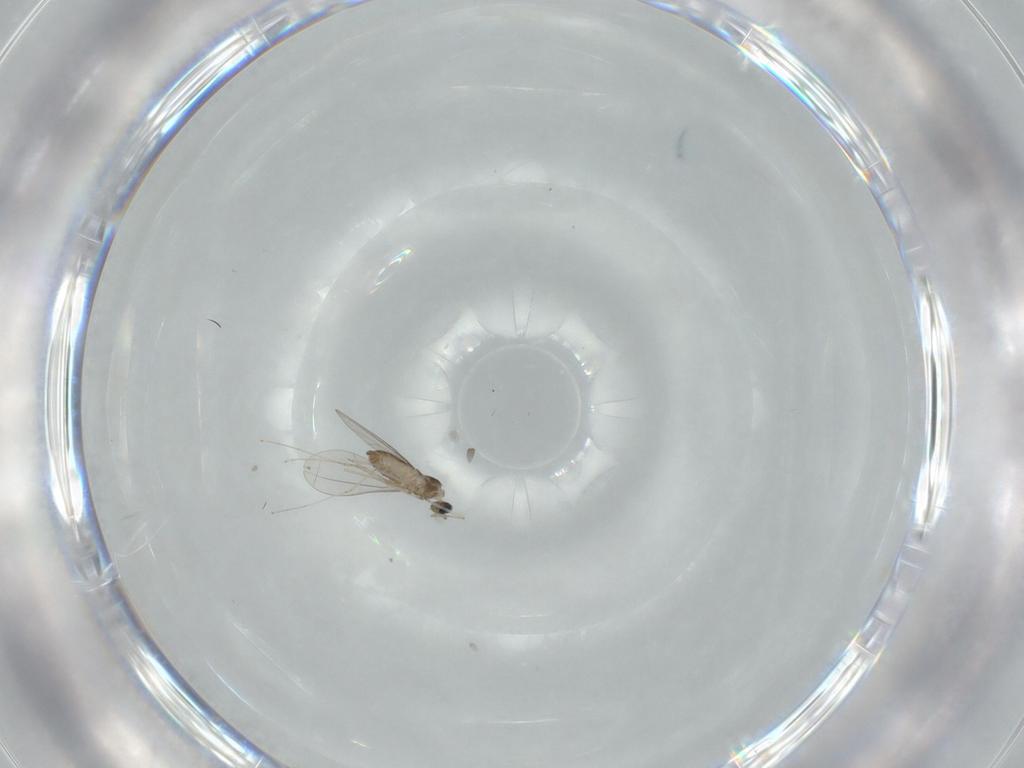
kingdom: Animalia
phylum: Arthropoda
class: Insecta
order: Diptera
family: Cecidomyiidae
